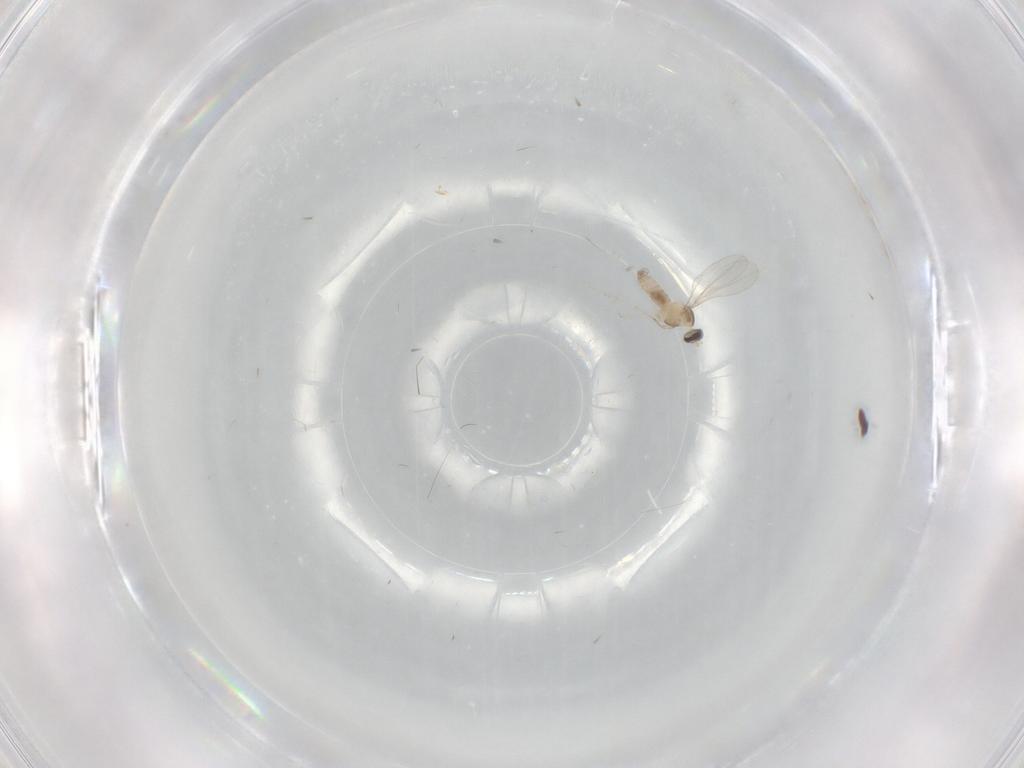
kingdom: Animalia
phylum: Arthropoda
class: Insecta
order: Diptera
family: Cecidomyiidae
